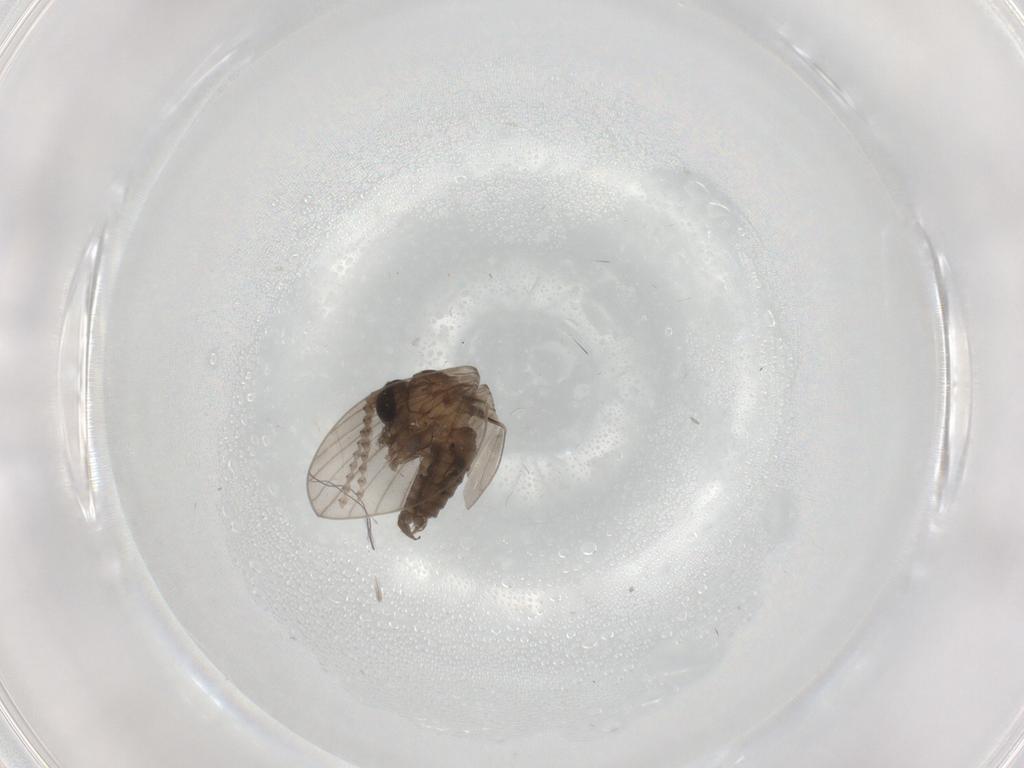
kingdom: Animalia
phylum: Arthropoda
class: Insecta
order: Diptera
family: Psychodidae
